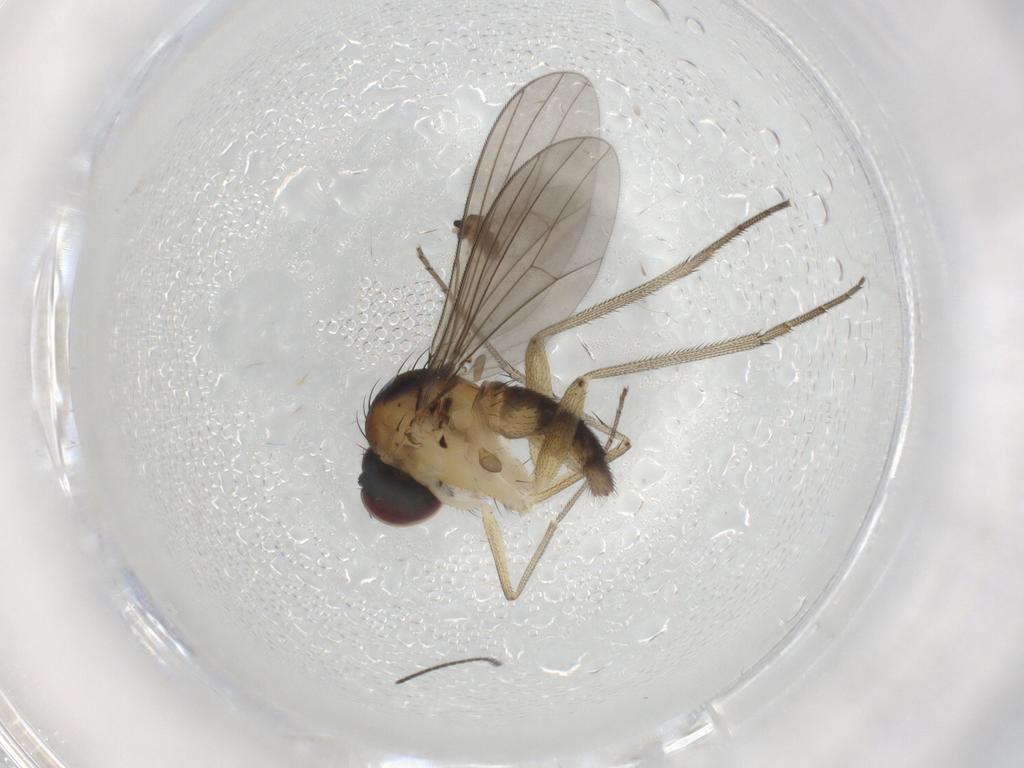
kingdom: Animalia
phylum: Arthropoda
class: Insecta
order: Diptera
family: Cecidomyiidae
